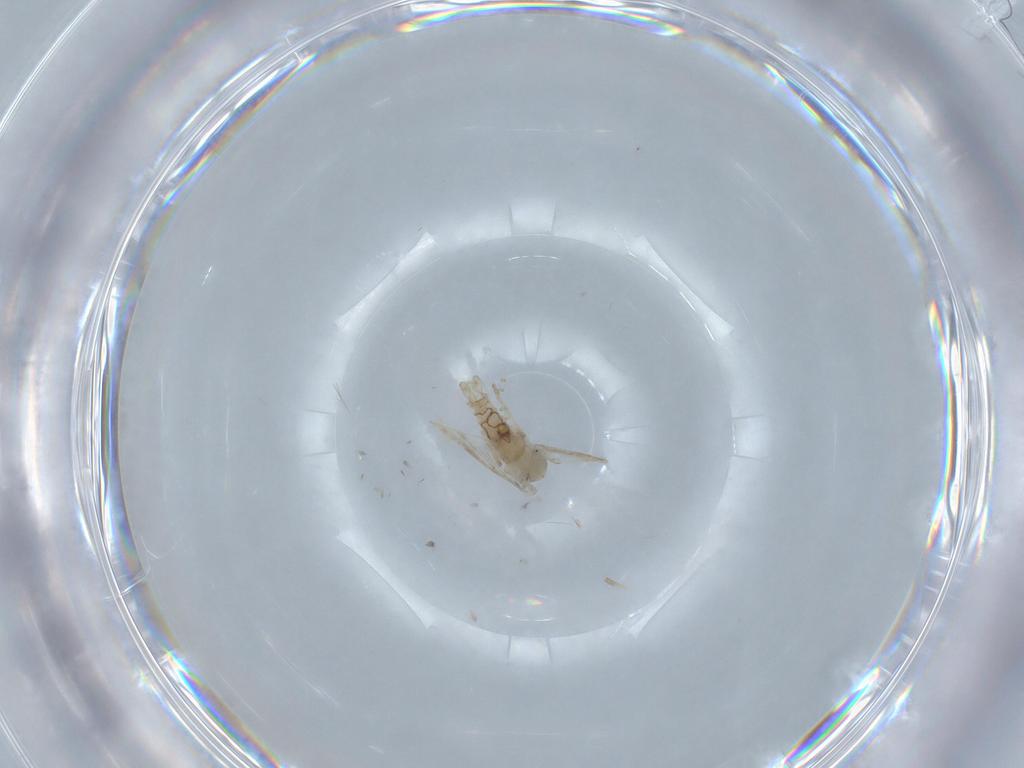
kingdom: Animalia
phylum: Arthropoda
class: Insecta
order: Diptera
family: Psychodidae
